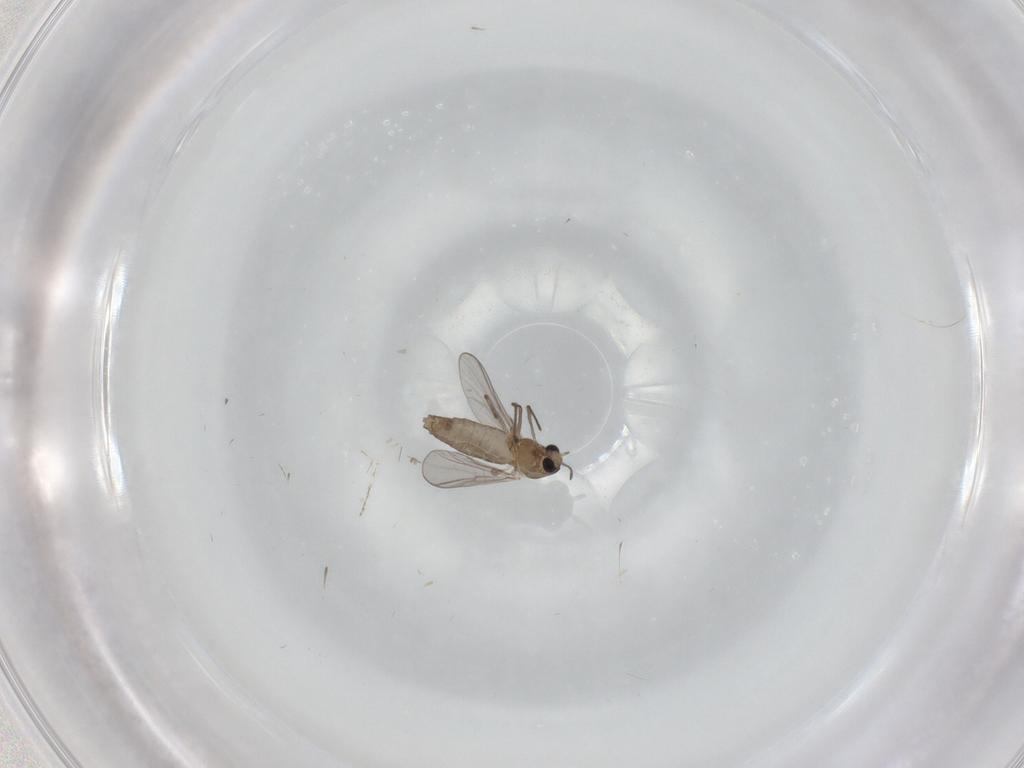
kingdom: Animalia
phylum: Arthropoda
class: Insecta
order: Diptera
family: Chironomidae
